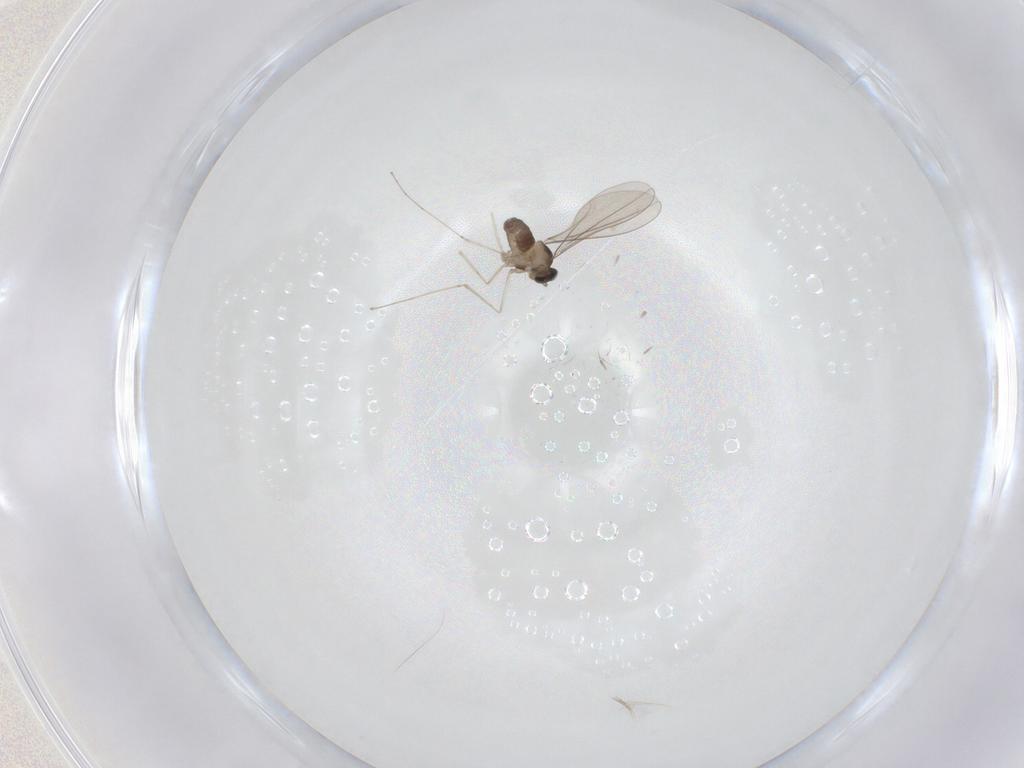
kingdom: Animalia
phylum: Arthropoda
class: Insecta
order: Diptera
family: Cecidomyiidae
